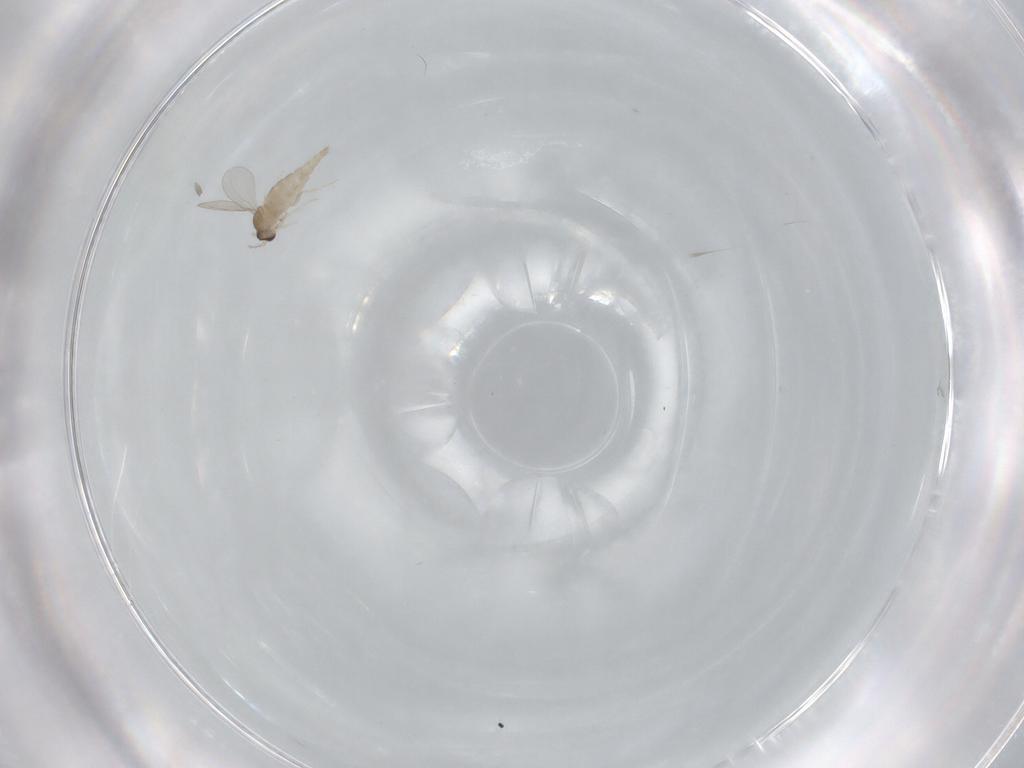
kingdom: Animalia
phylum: Arthropoda
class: Insecta
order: Diptera
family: Cecidomyiidae
